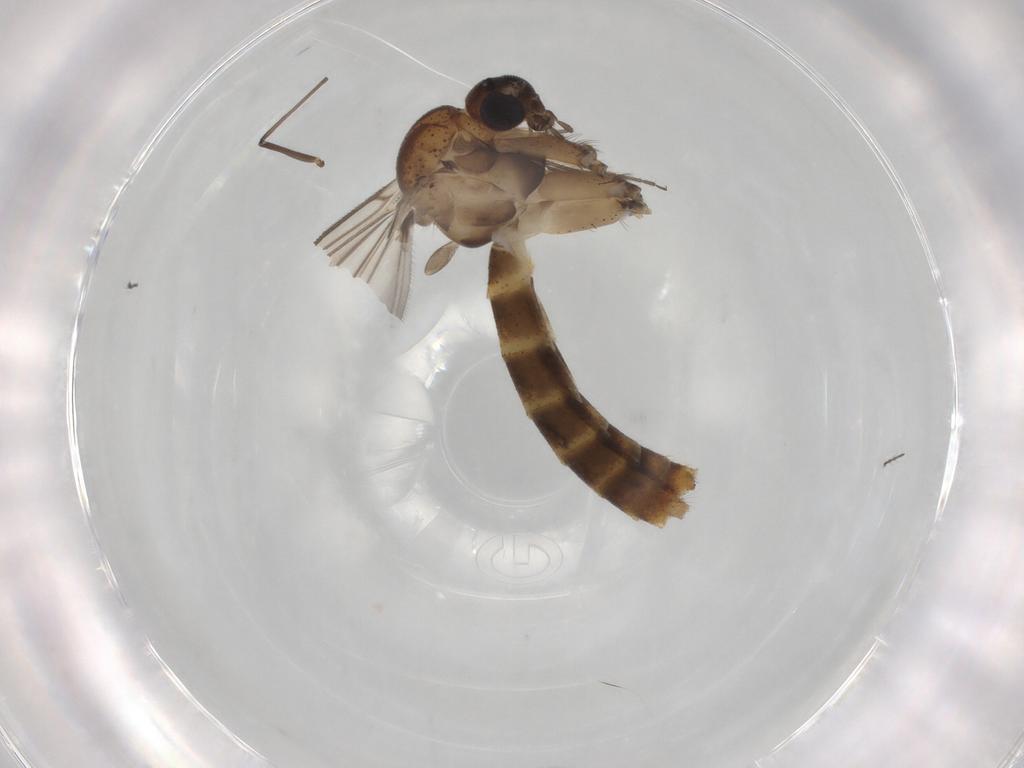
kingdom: Animalia
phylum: Arthropoda
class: Insecta
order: Diptera
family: Mycetophilidae
